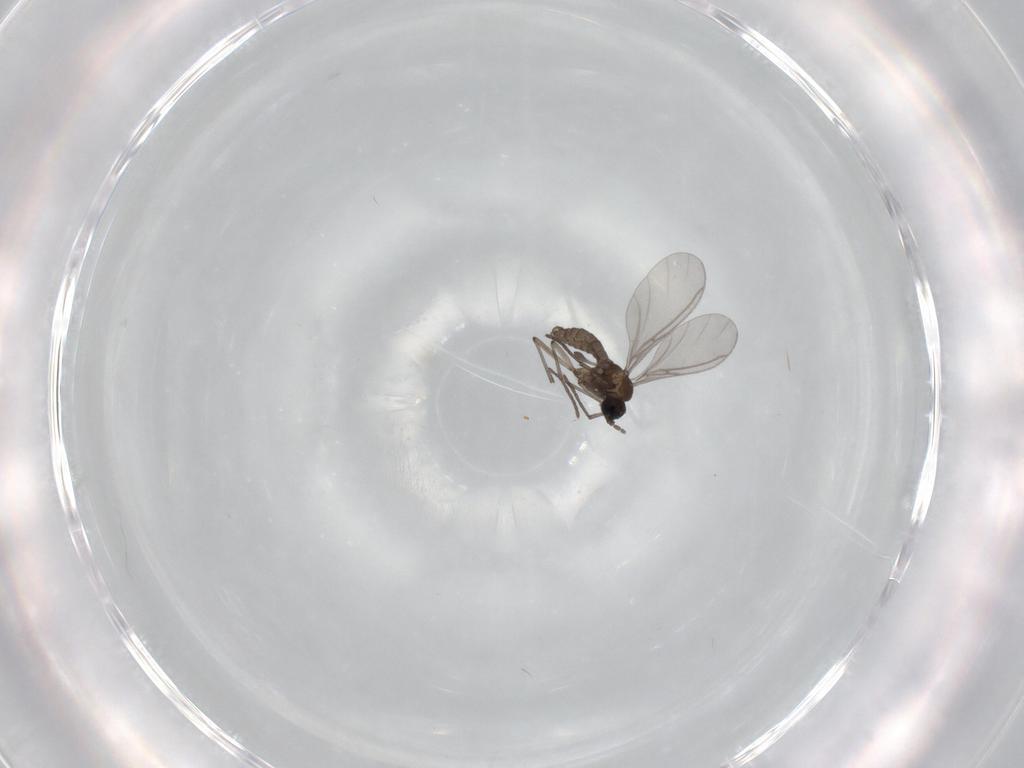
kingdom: Animalia
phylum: Arthropoda
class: Insecta
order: Diptera
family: Sciaridae
